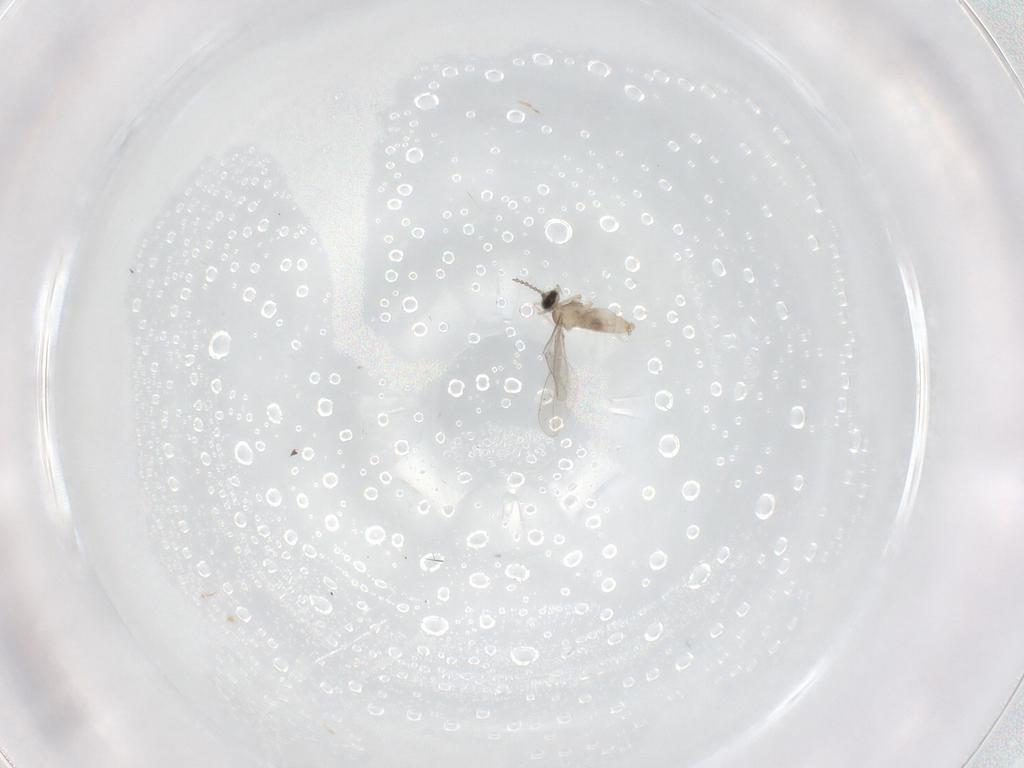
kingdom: Animalia
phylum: Arthropoda
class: Insecta
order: Diptera
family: Cecidomyiidae
